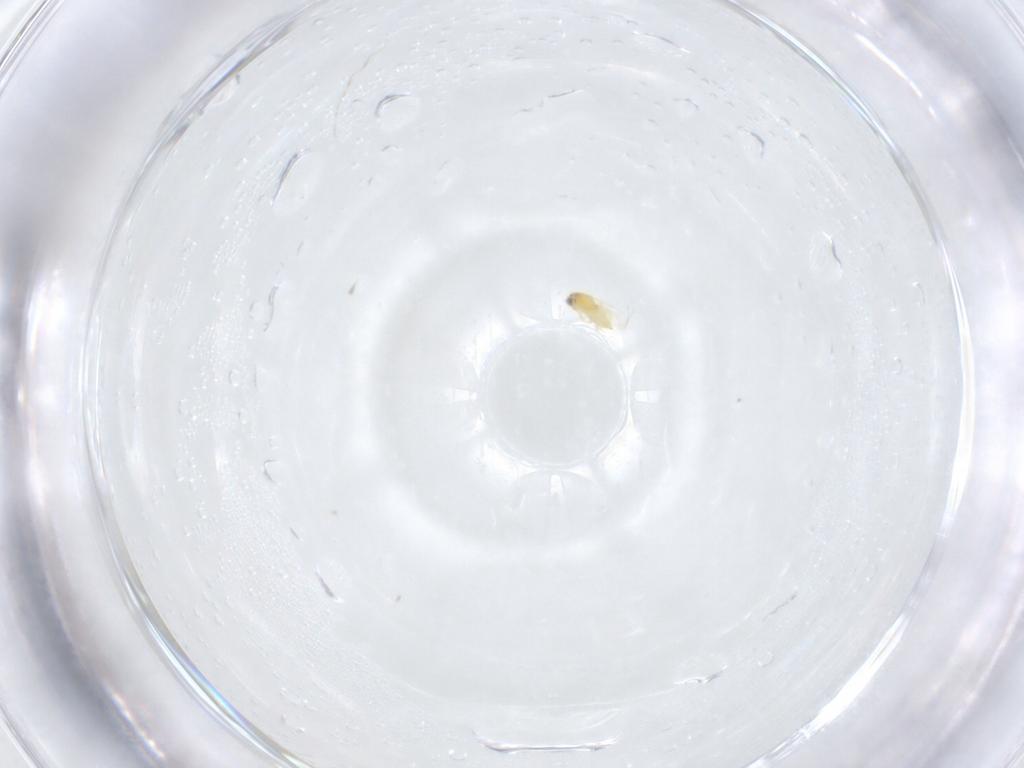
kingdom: Animalia
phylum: Arthropoda
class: Insecta
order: Hymenoptera
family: Aphelinidae
